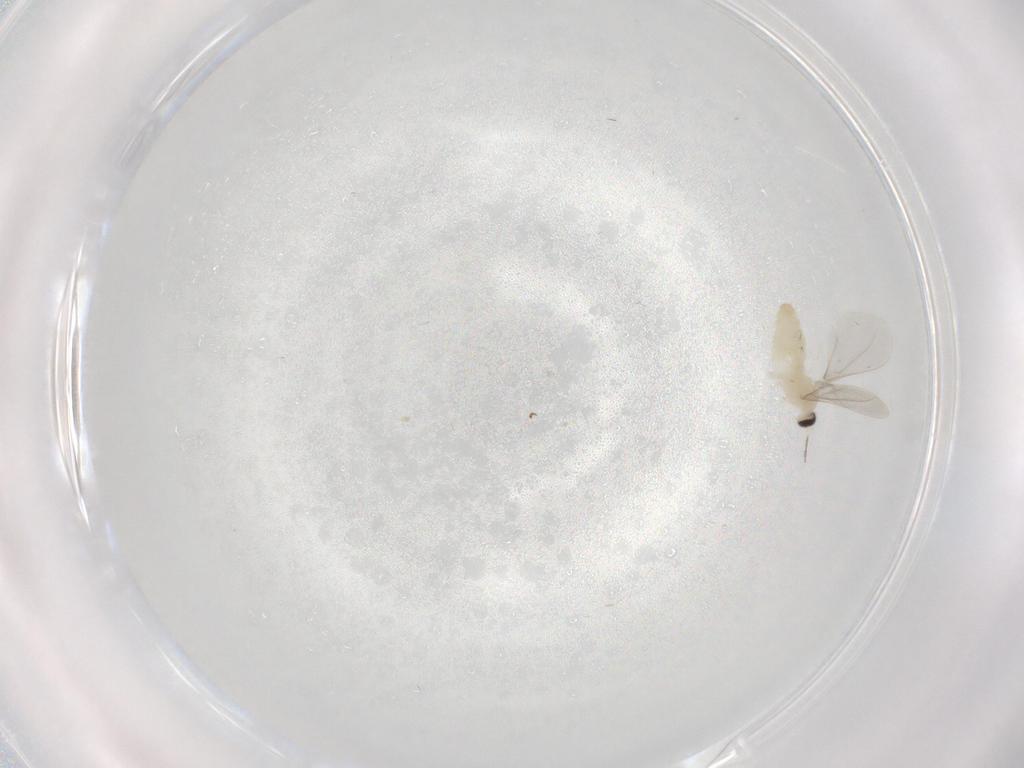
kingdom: Animalia
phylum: Arthropoda
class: Insecta
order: Diptera
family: Cecidomyiidae
